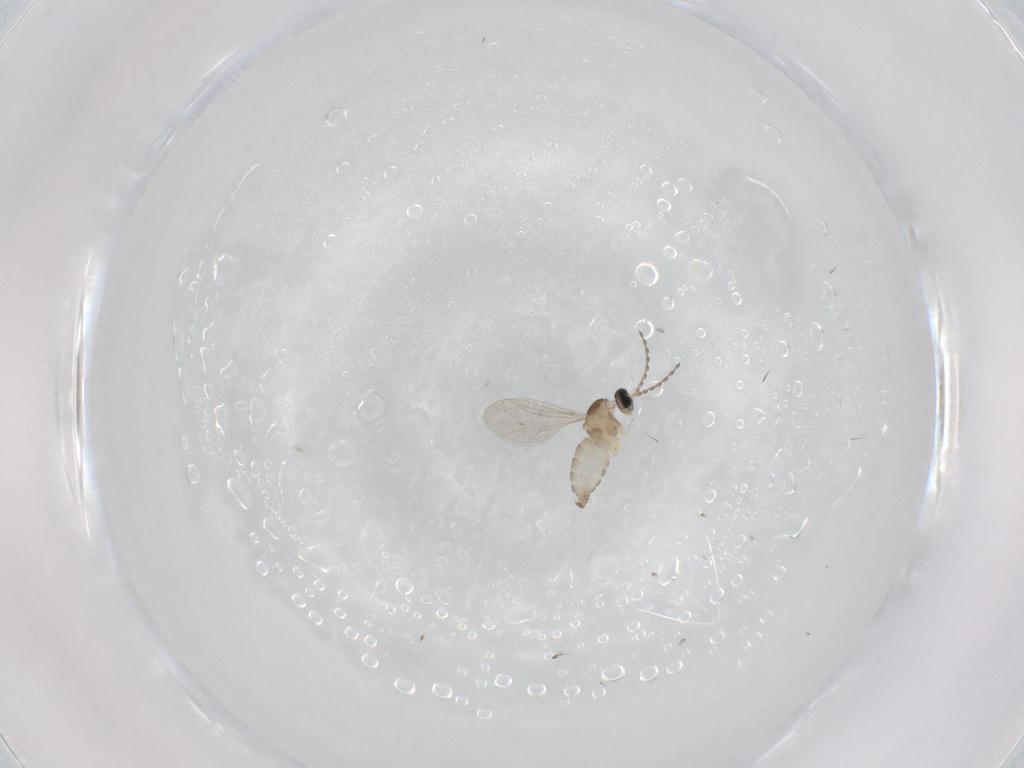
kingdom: Animalia
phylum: Arthropoda
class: Insecta
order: Diptera
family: Cecidomyiidae
